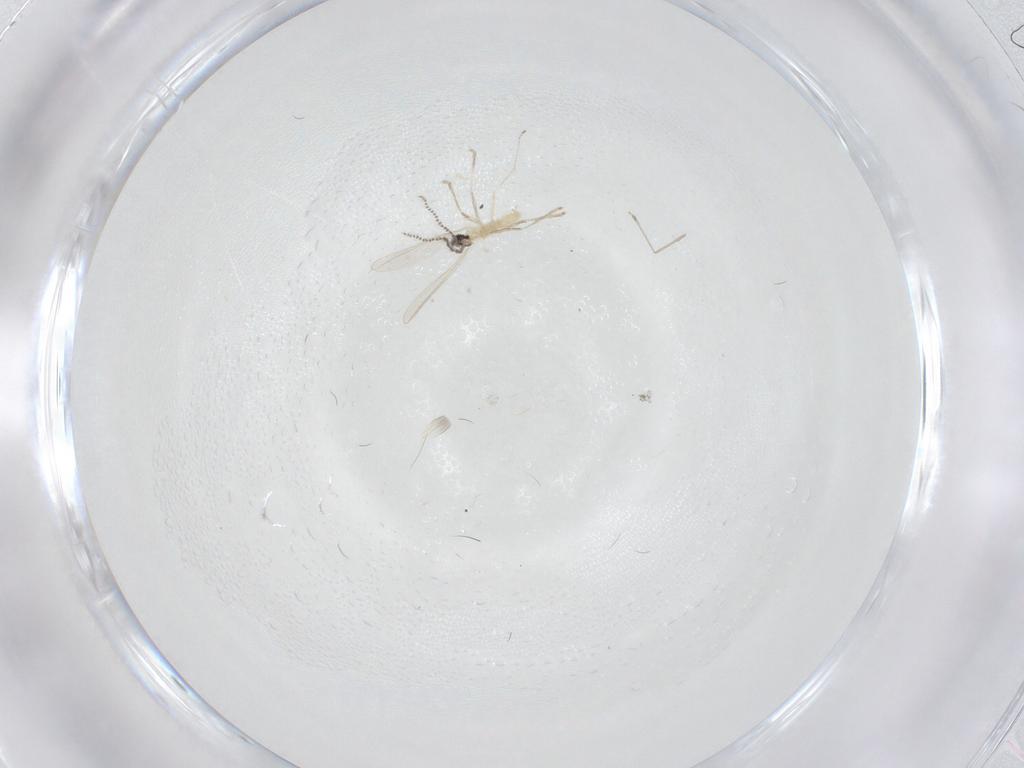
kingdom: Animalia
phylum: Arthropoda
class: Insecta
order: Diptera
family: Cecidomyiidae
